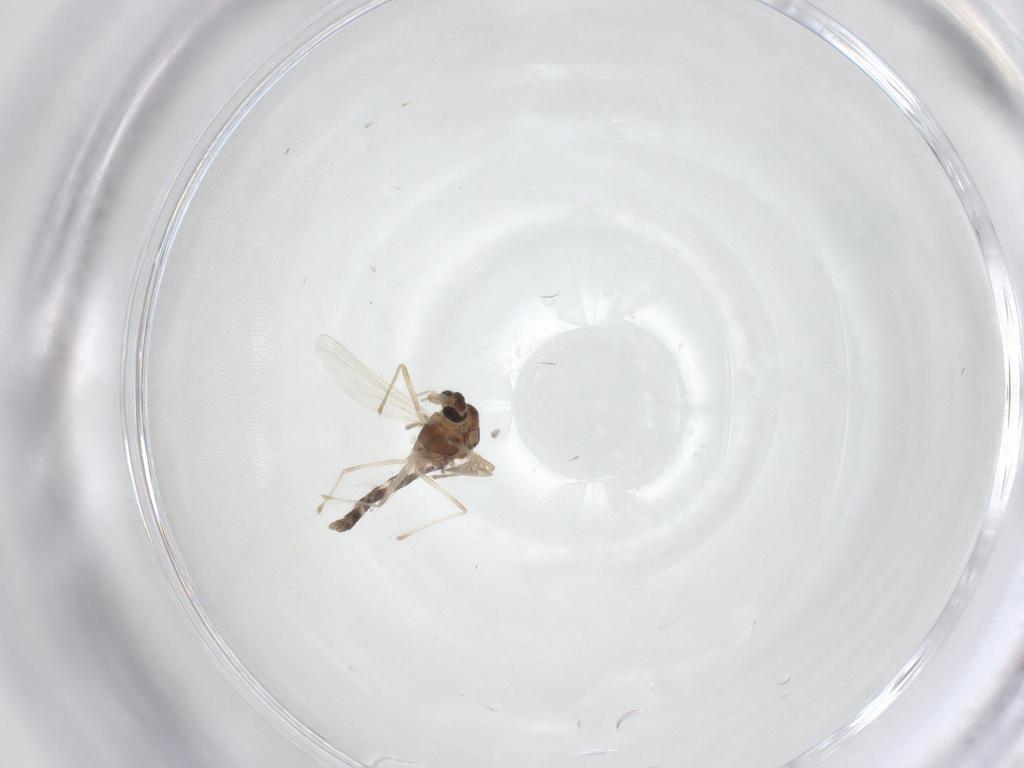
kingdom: Animalia
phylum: Arthropoda
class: Insecta
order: Diptera
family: Chironomidae
